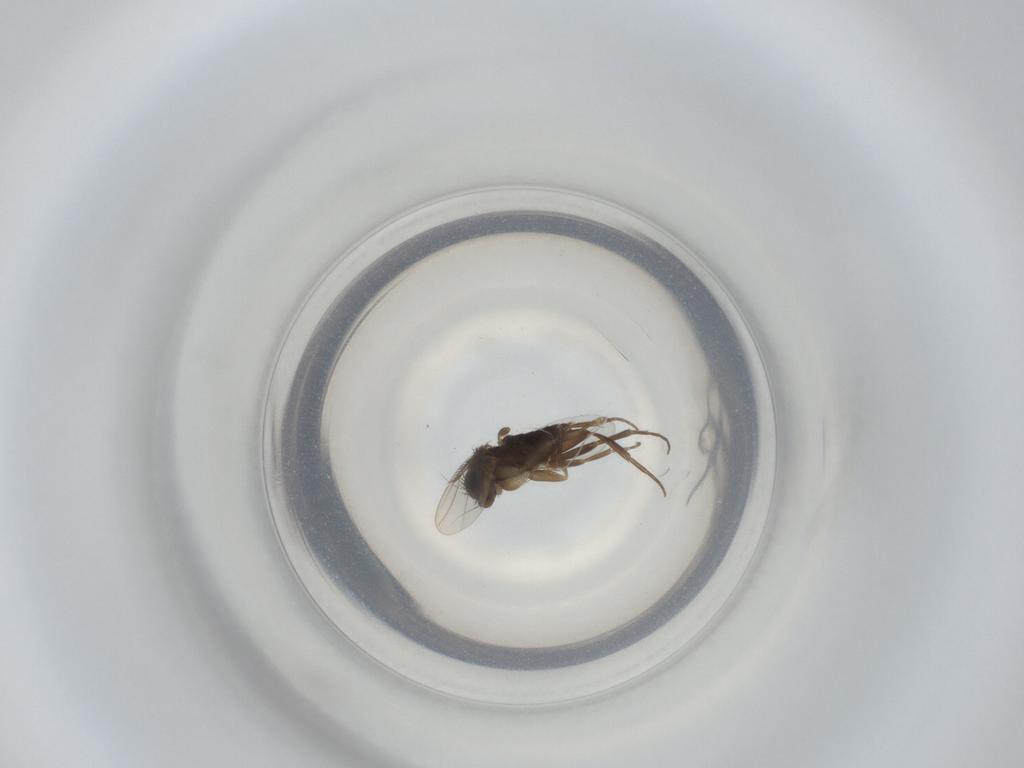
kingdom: Animalia
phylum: Arthropoda
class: Insecta
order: Diptera
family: Phoridae
